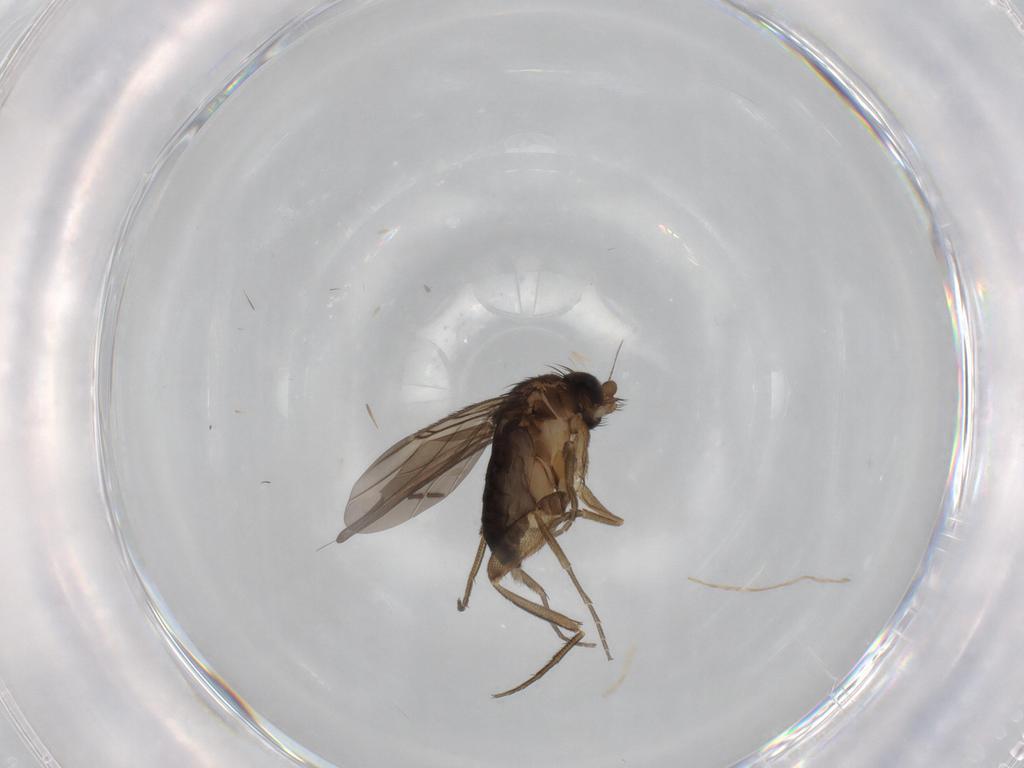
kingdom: Animalia
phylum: Arthropoda
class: Insecta
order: Diptera
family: Phoridae
